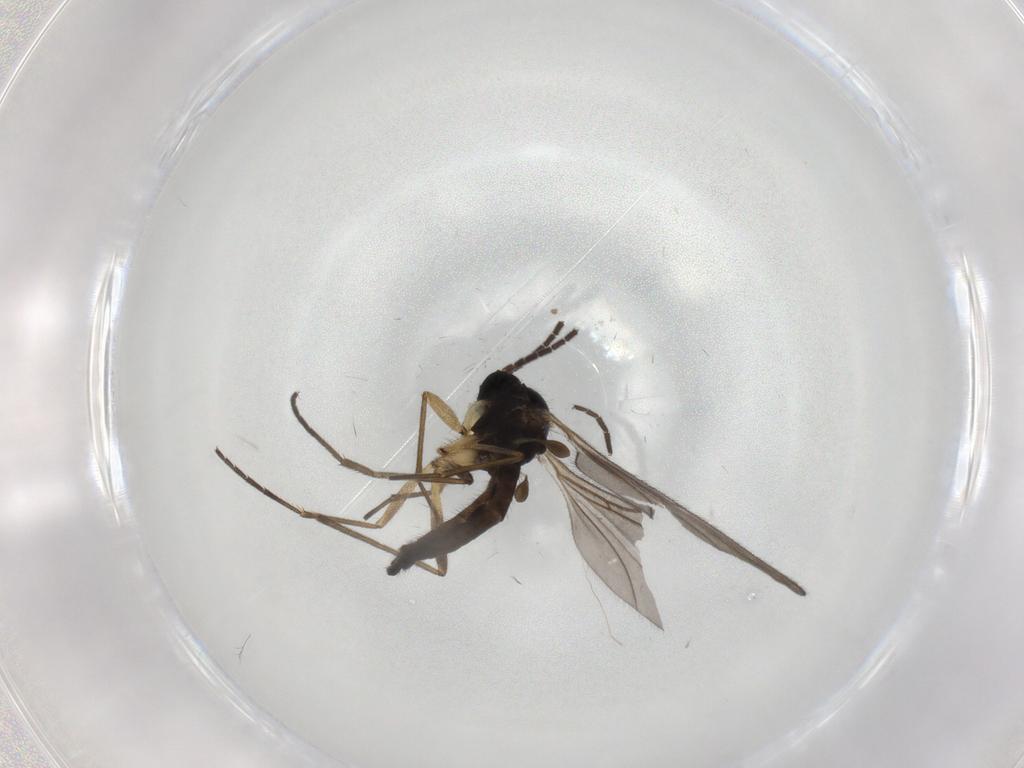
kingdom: Animalia
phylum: Arthropoda
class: Insecta
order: Diptera
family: Sciaridae
